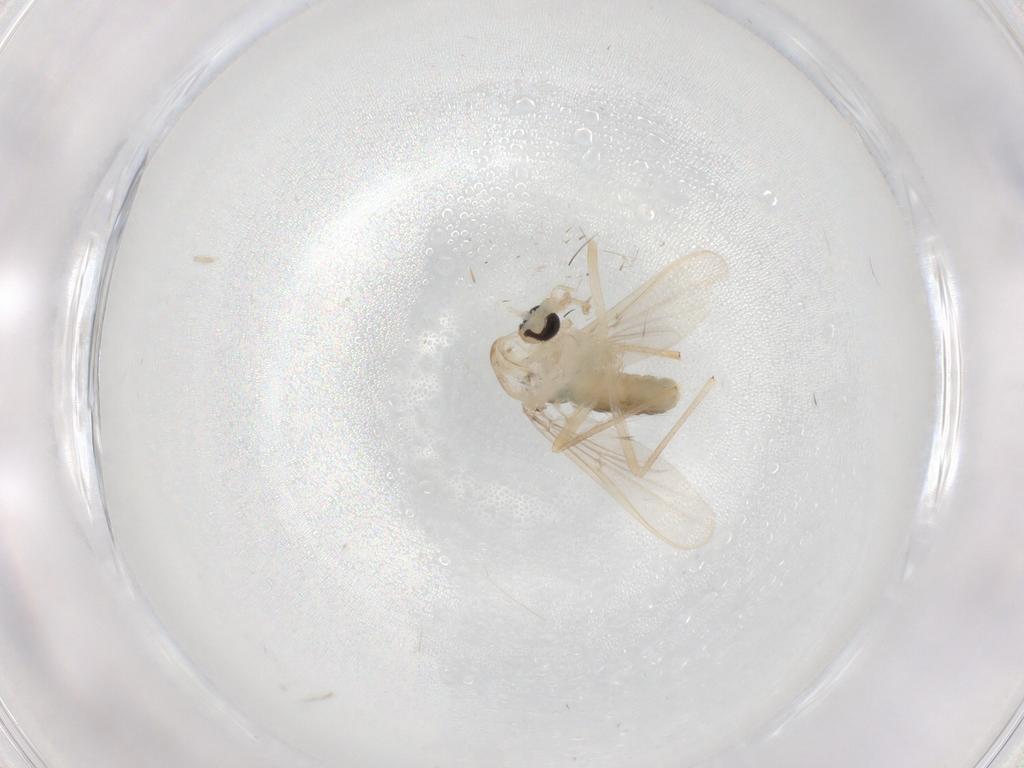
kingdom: Animalia
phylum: Arthropoda
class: Insecta
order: Diptera
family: Chironomidae
